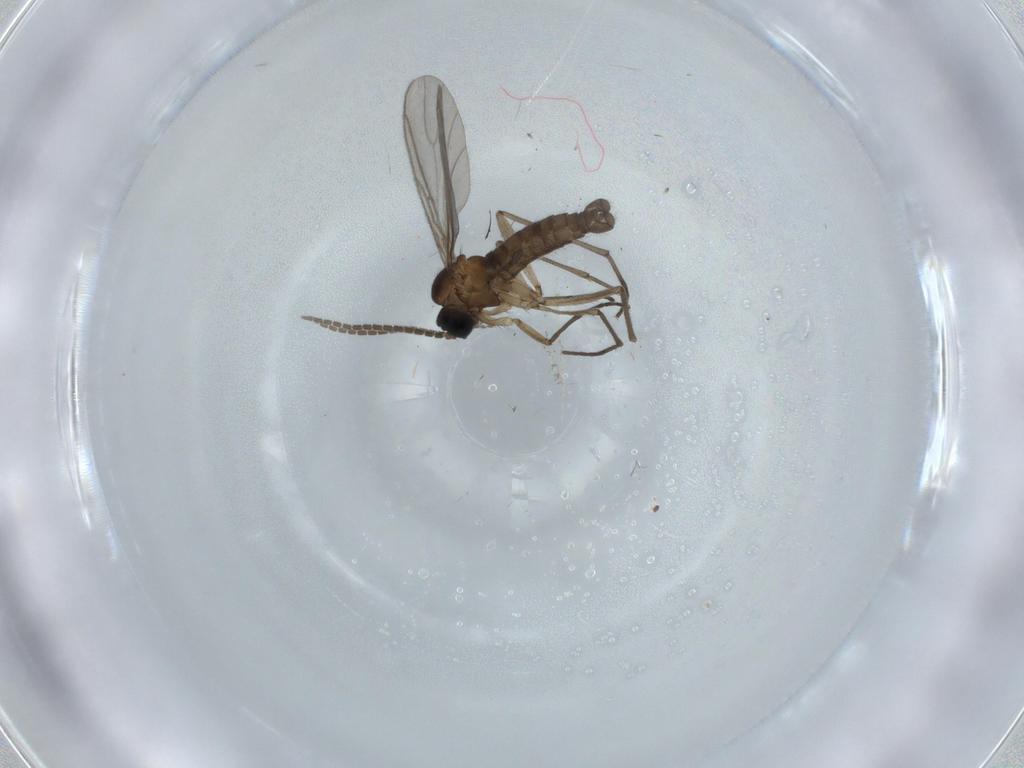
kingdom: Animalia
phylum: Arthropoda
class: Insecta
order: Diptera
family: Sciaridae
